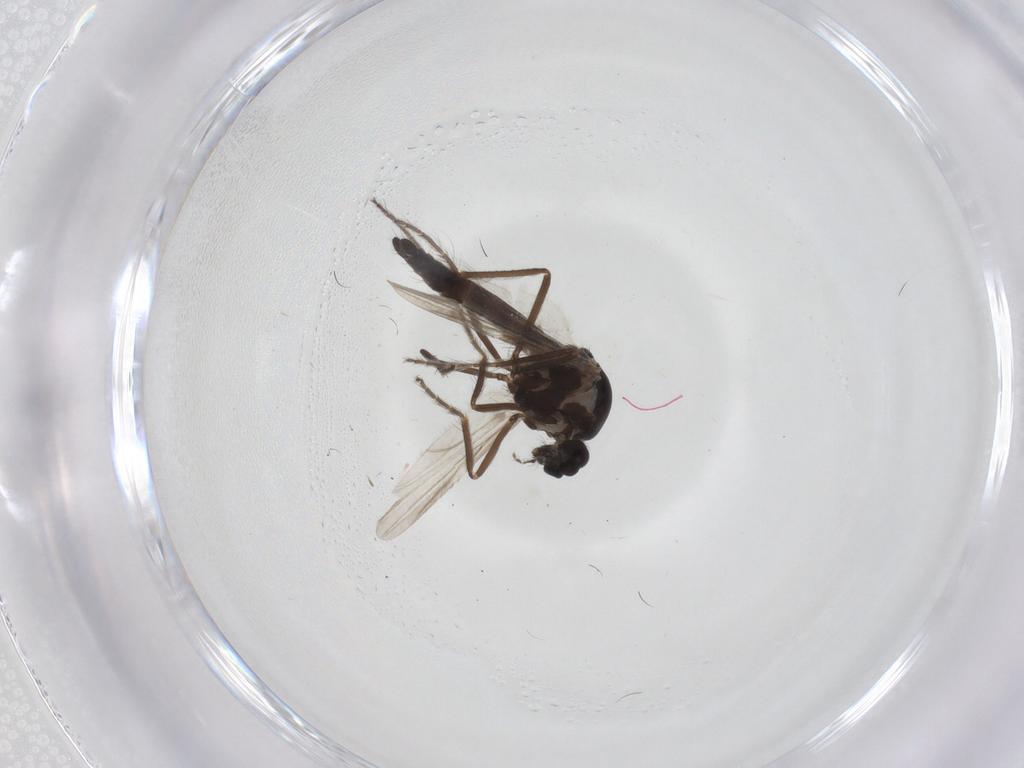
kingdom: Animalia
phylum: Arthropoda
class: Insecta
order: Diptera
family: Ceratopogonidae
